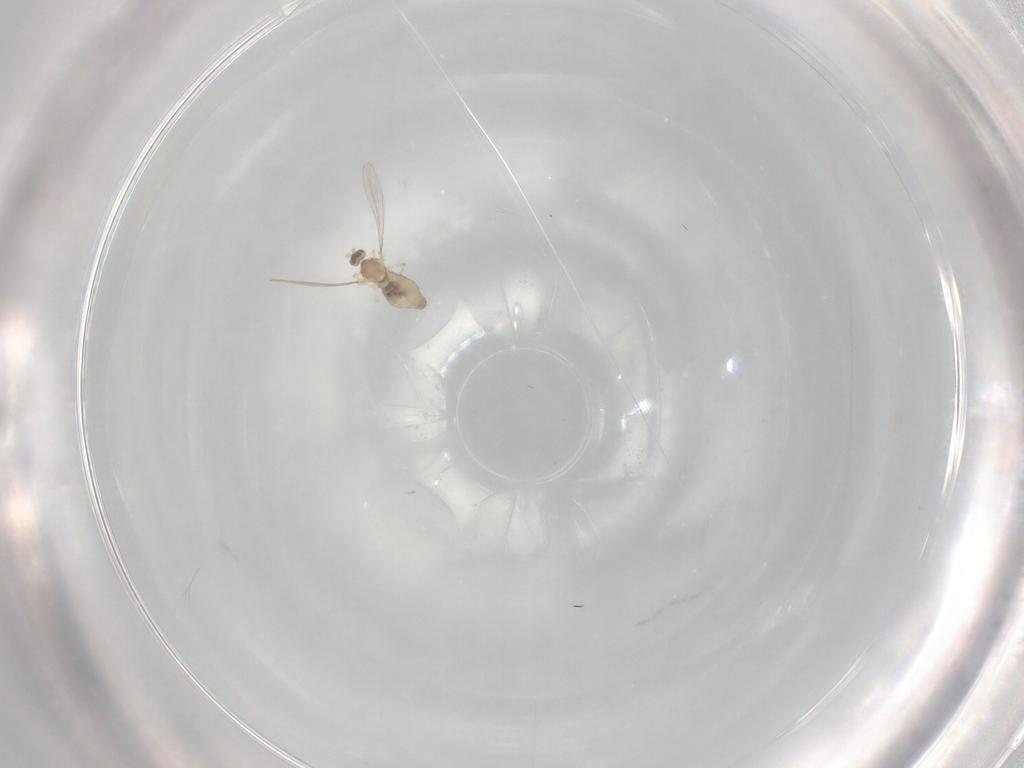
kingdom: Animalia
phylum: Arthropoda
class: Insecta
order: Diptera
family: Cecidomyiidae
